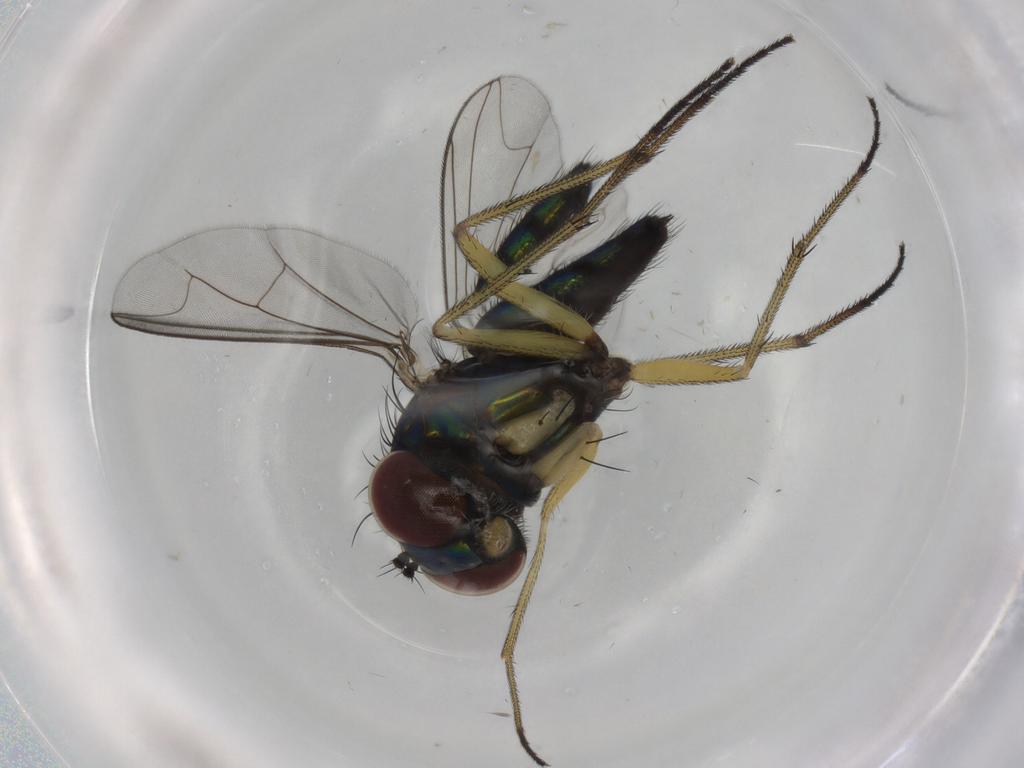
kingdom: Animalia
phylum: Arthropoda
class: Insecta
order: Diptera
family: Dolichopodidae
